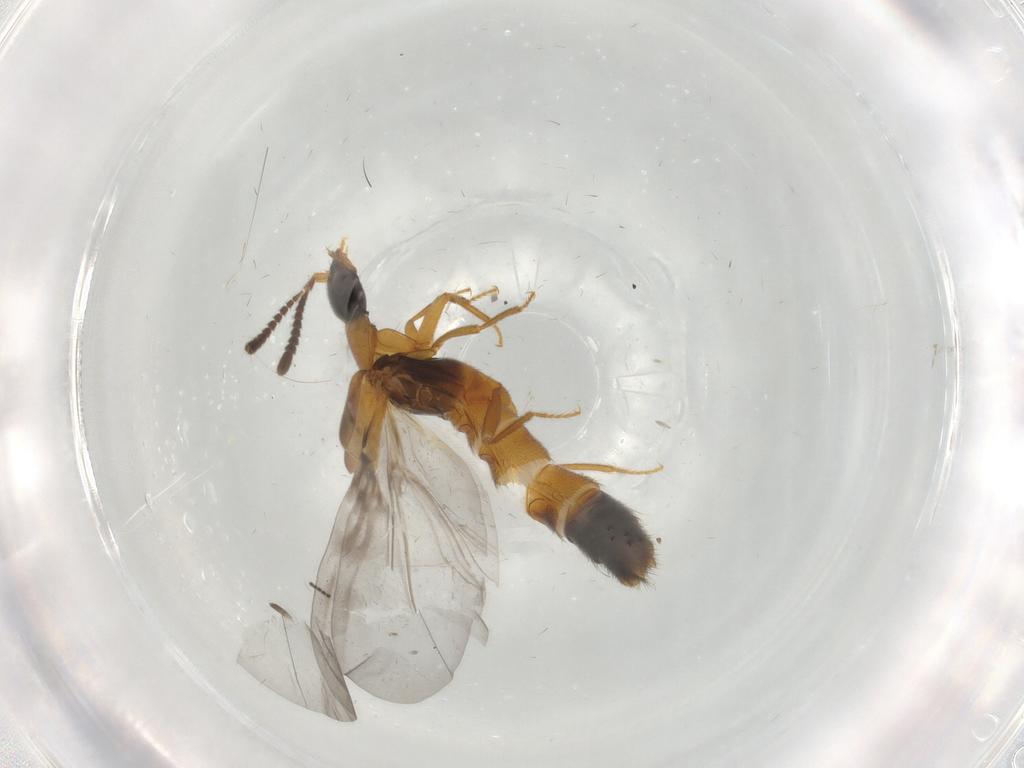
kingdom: Animalia
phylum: Arthropoda
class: Insecta
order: Coleoptera
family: Staphylinidae
